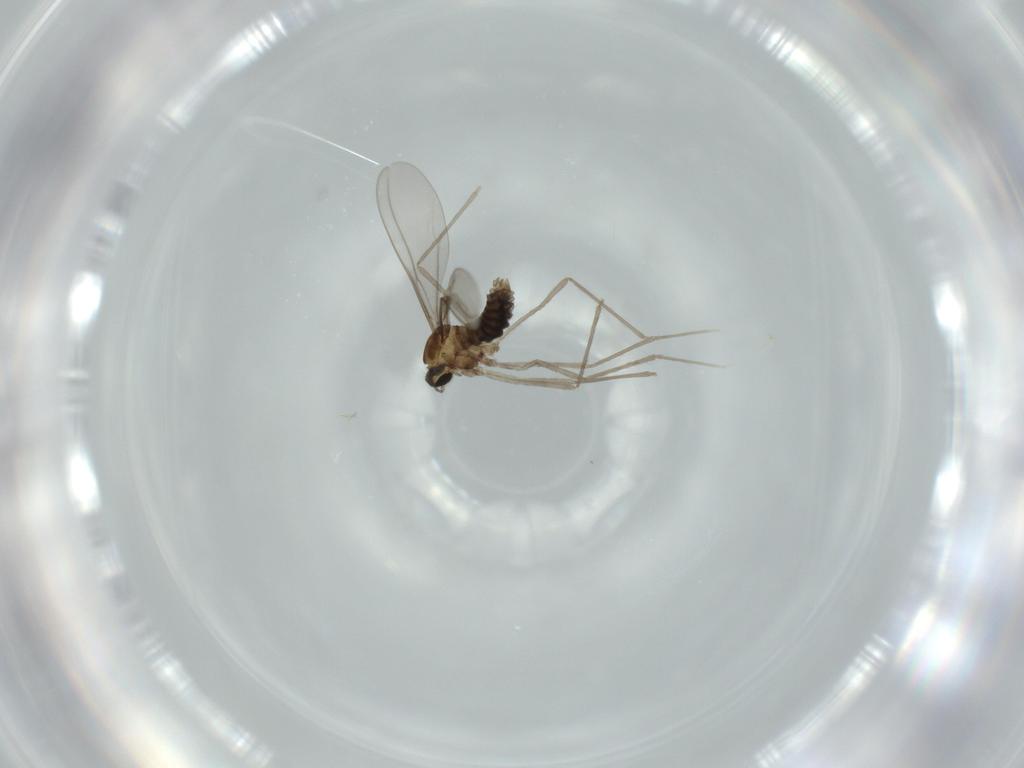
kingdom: Animalia
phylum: Arthropoda
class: Insecta
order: Diptera
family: Cecidomyiidae
